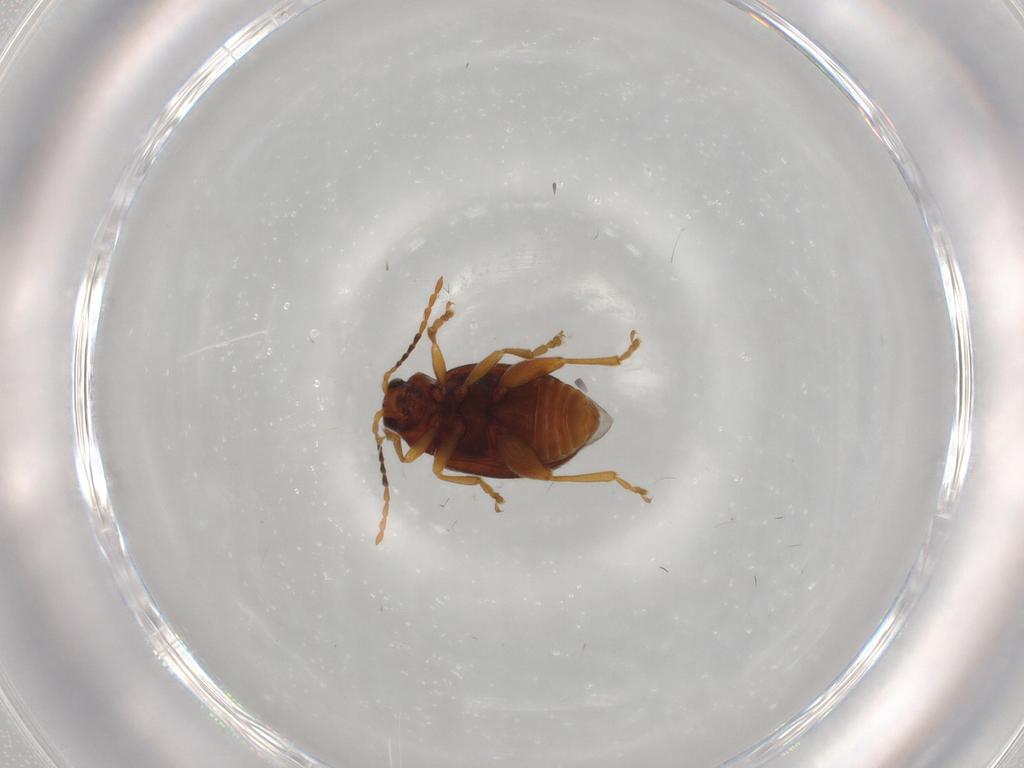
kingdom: Animalia
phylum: Arthropoda
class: Insecta
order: Coleoptera
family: Chrysomelidae
